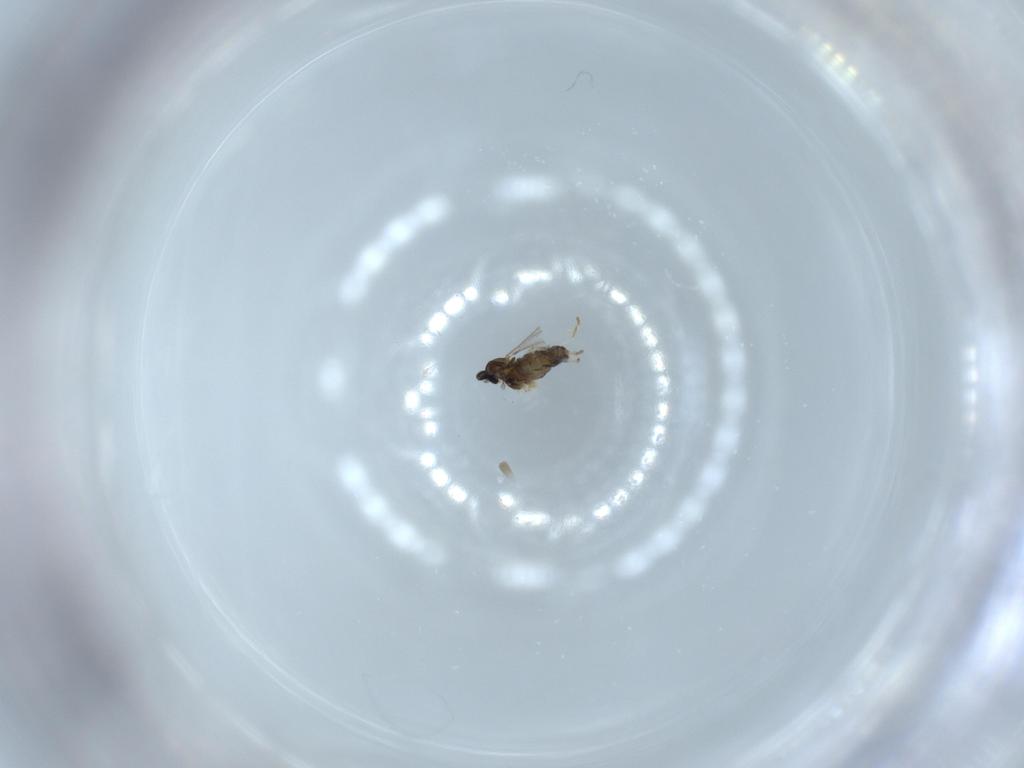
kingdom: Animalia
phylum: Arthropoda
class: Insecta
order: Diptera
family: Cecidomyiidae
